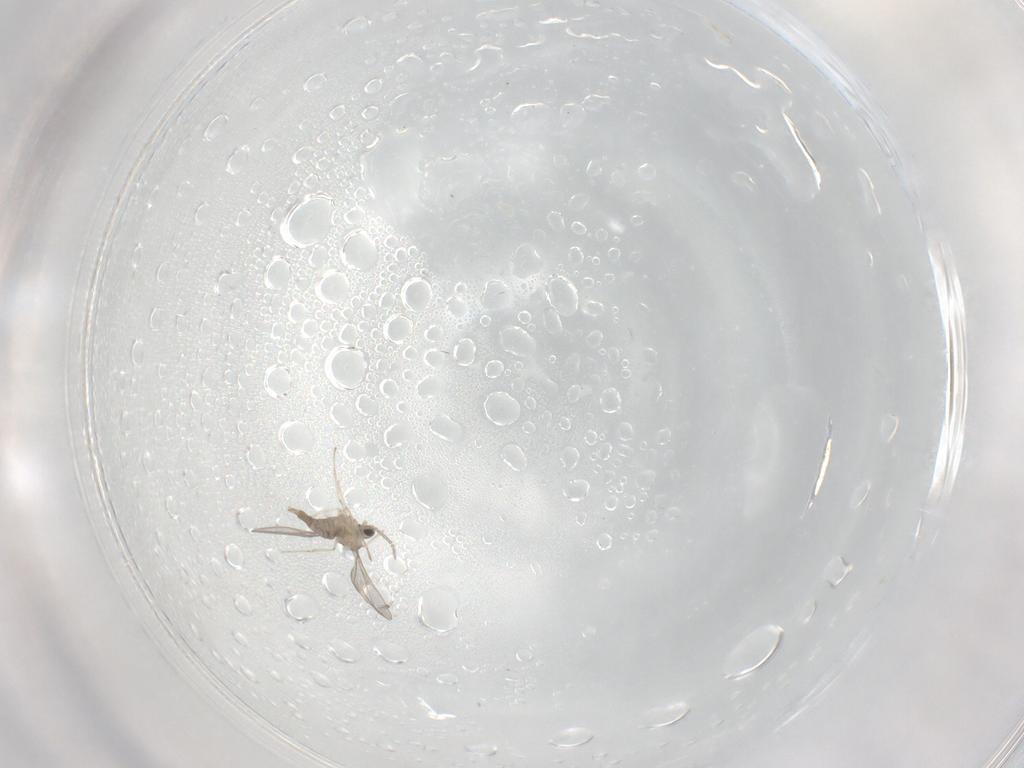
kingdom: Animalia
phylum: Arthropoda
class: Insecta
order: Diptera
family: Cecidomyiidae
